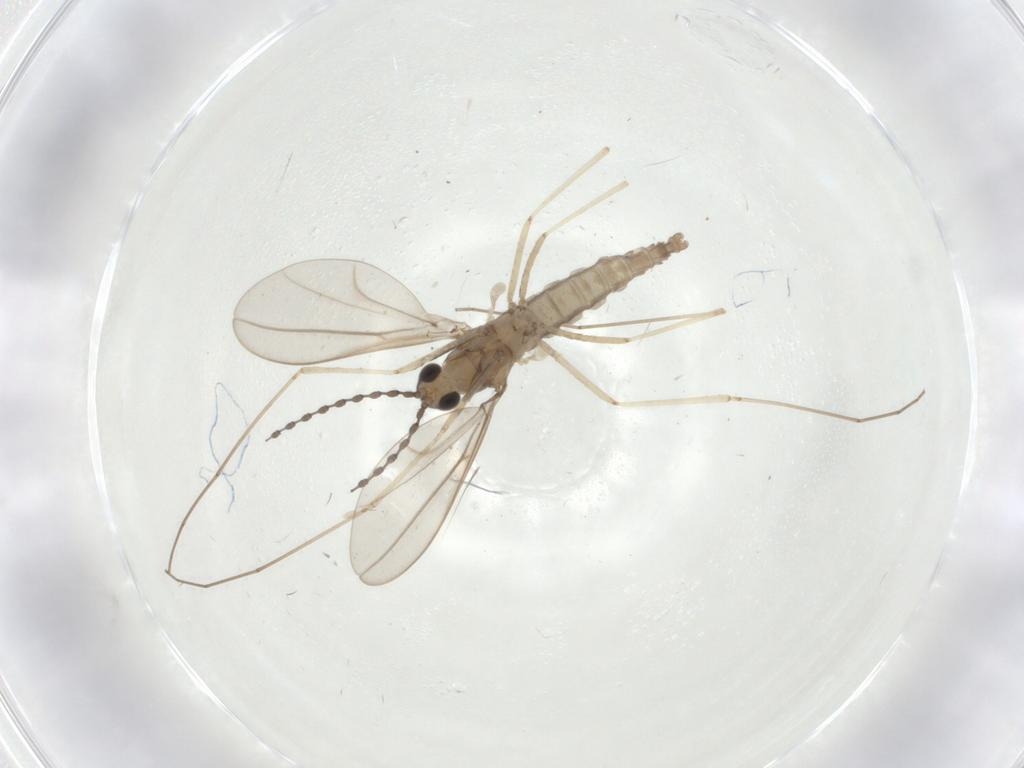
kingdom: Animalia
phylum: Arthropoda
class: Insecta
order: Diptera
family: Cecidomyiidae
